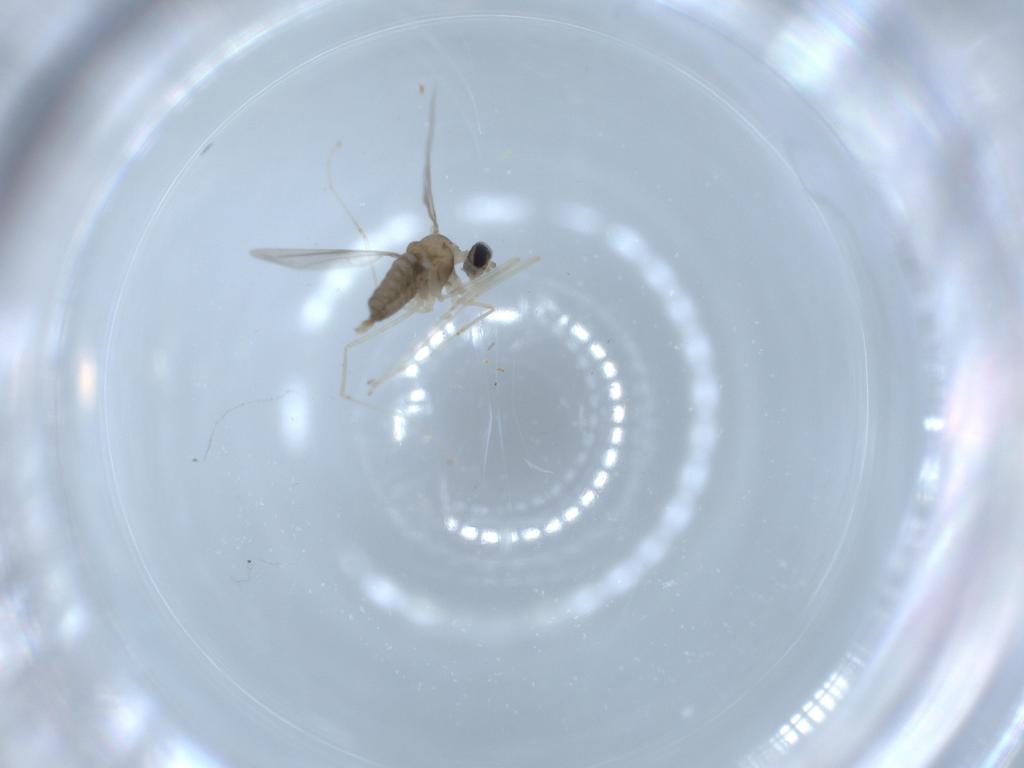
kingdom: Animalia
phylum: Arthropoda
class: Insecta
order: Diptera
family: Cecidomyiidae
